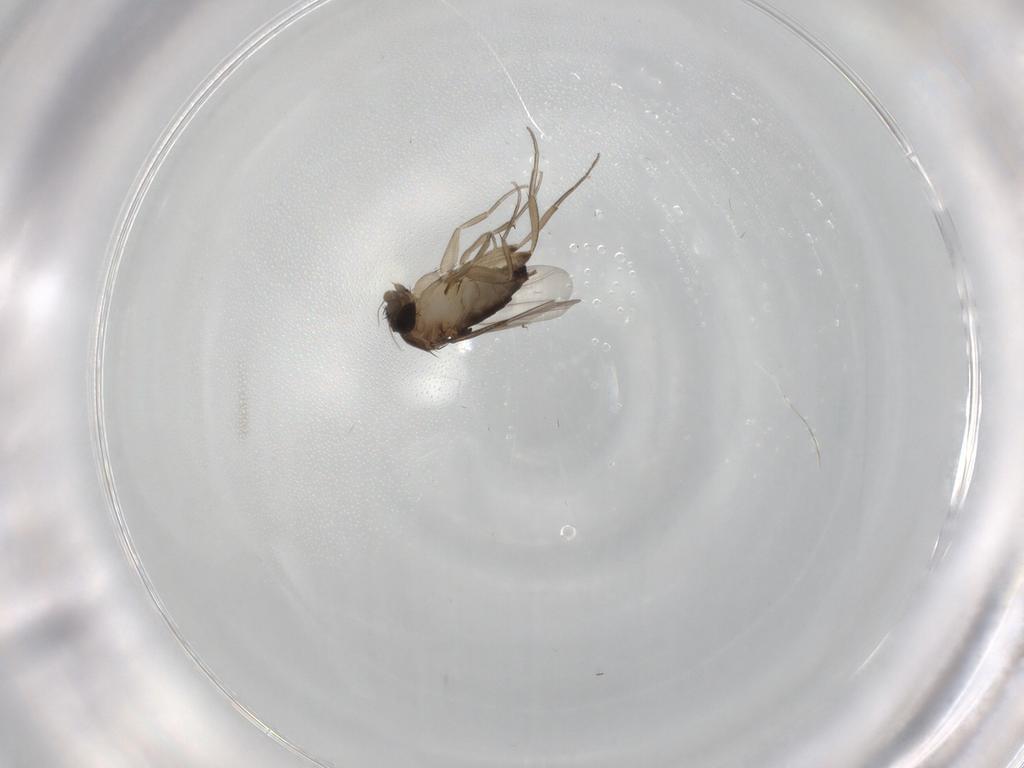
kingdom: Animalia
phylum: Arthropoda
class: Insecta
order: Diptera
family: Phoridae
